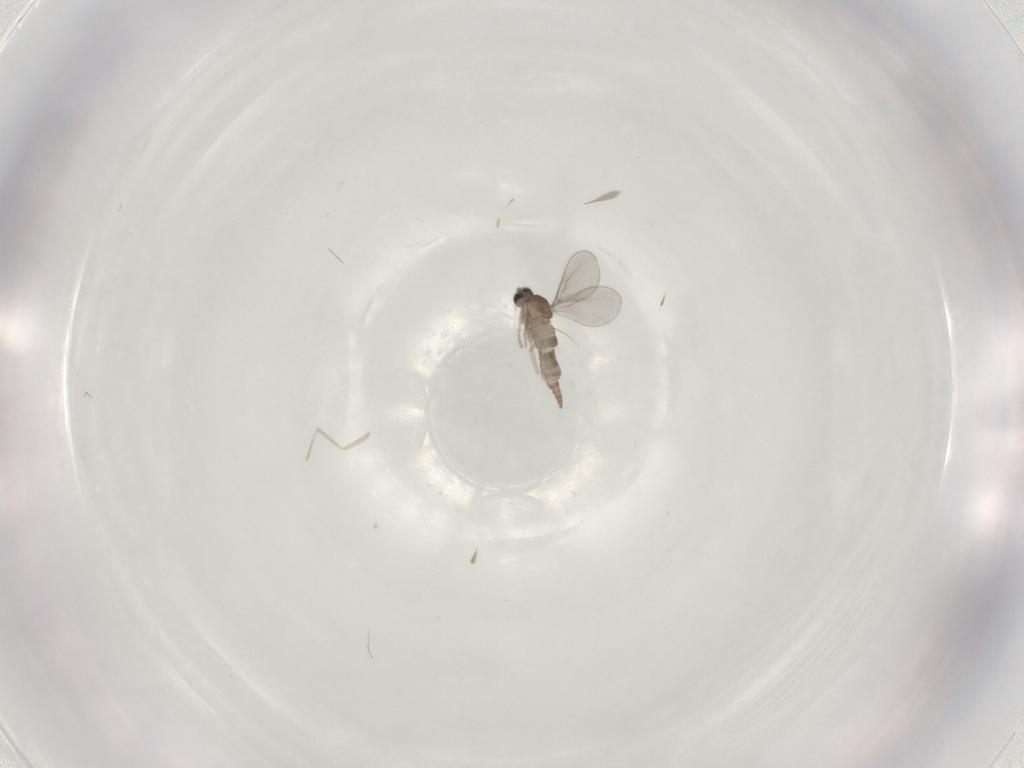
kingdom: Animalia
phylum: Arthropoda
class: Insecta
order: Diptera
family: Cecidomyiidae
